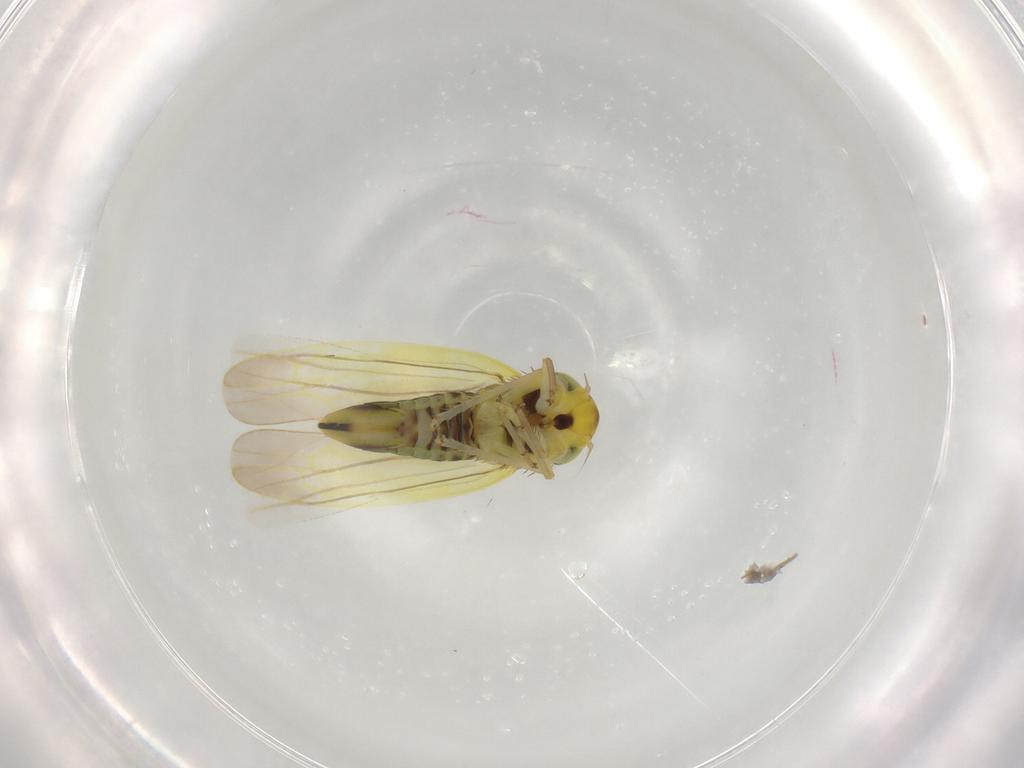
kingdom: Animalia
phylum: Arthropoda
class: Insecta
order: Hemiptera
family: Cicadellidae
